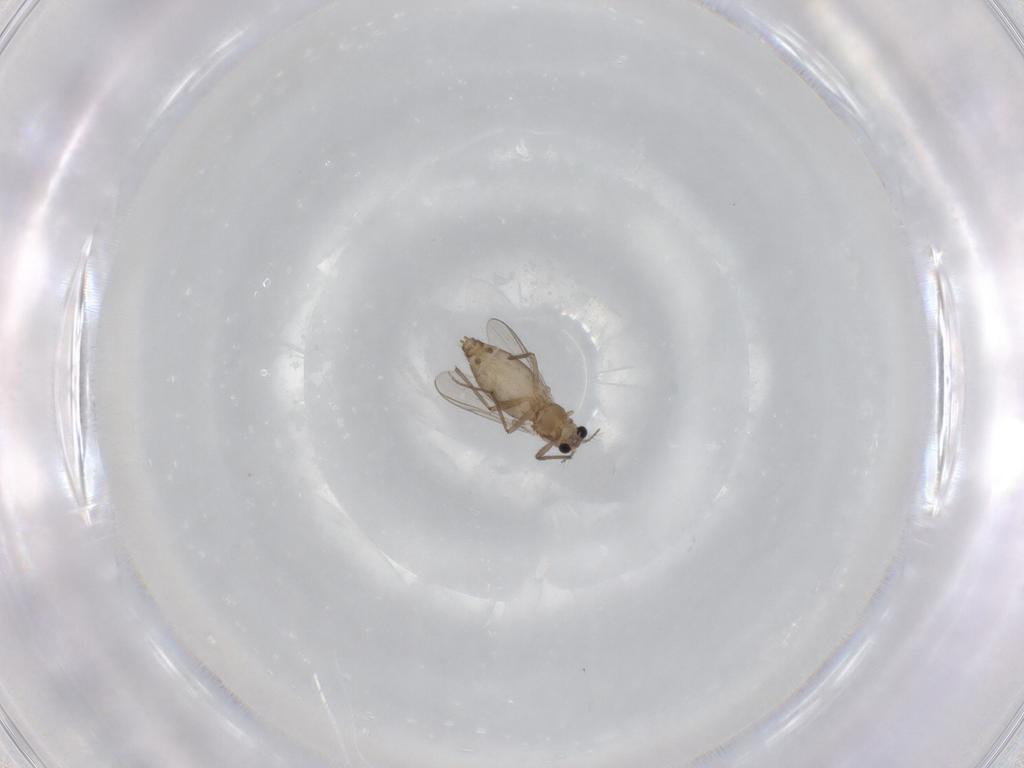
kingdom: Animalia
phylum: Arthropoda
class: Insecta
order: Diptera
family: Chironomidae
